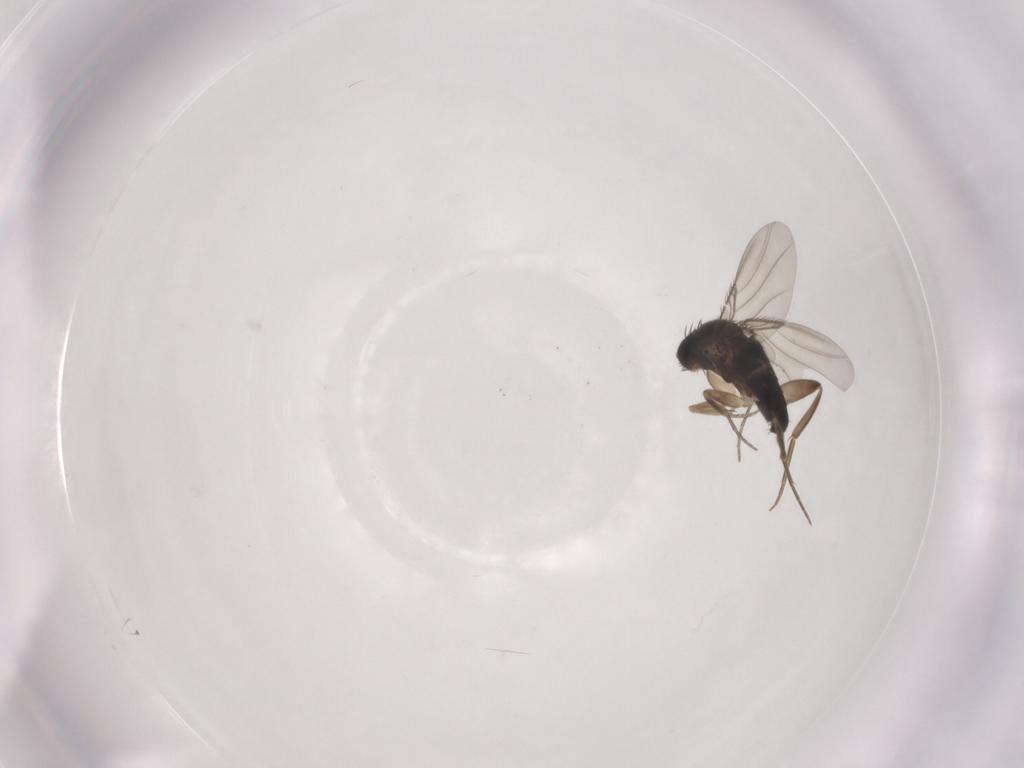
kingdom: Animalia
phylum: Arthropoda
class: Insecta
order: Diptera
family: Phoridae
